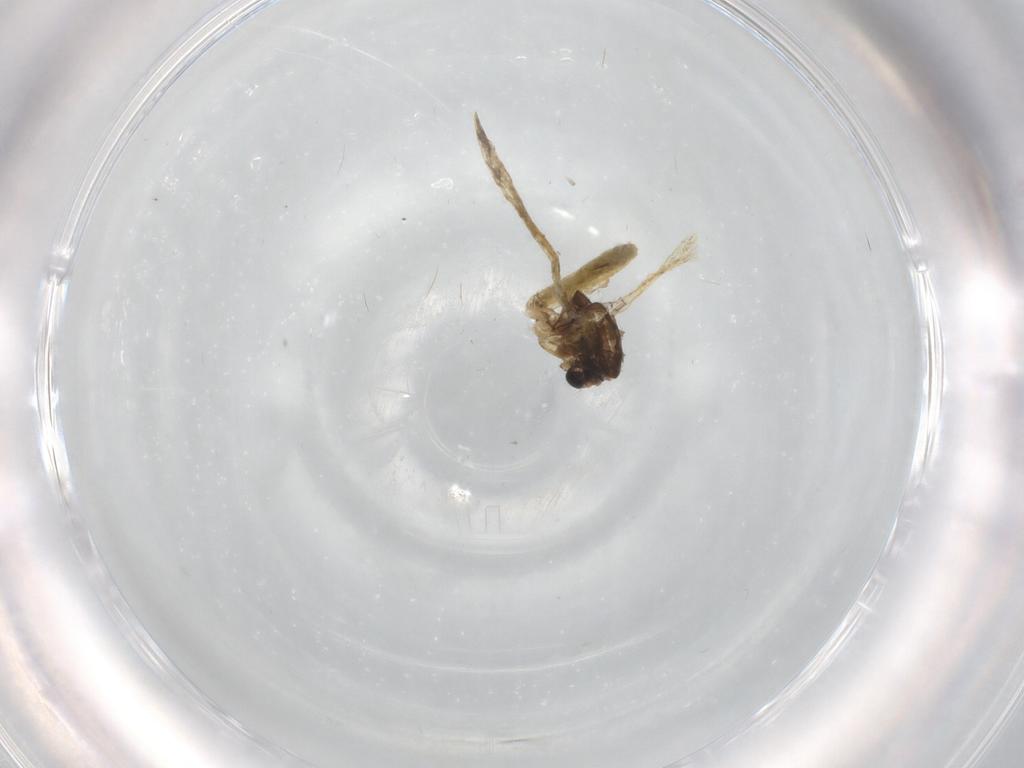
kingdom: Animalia
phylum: Arthropoda
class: Insecta
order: Diptera
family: Chironomidae
